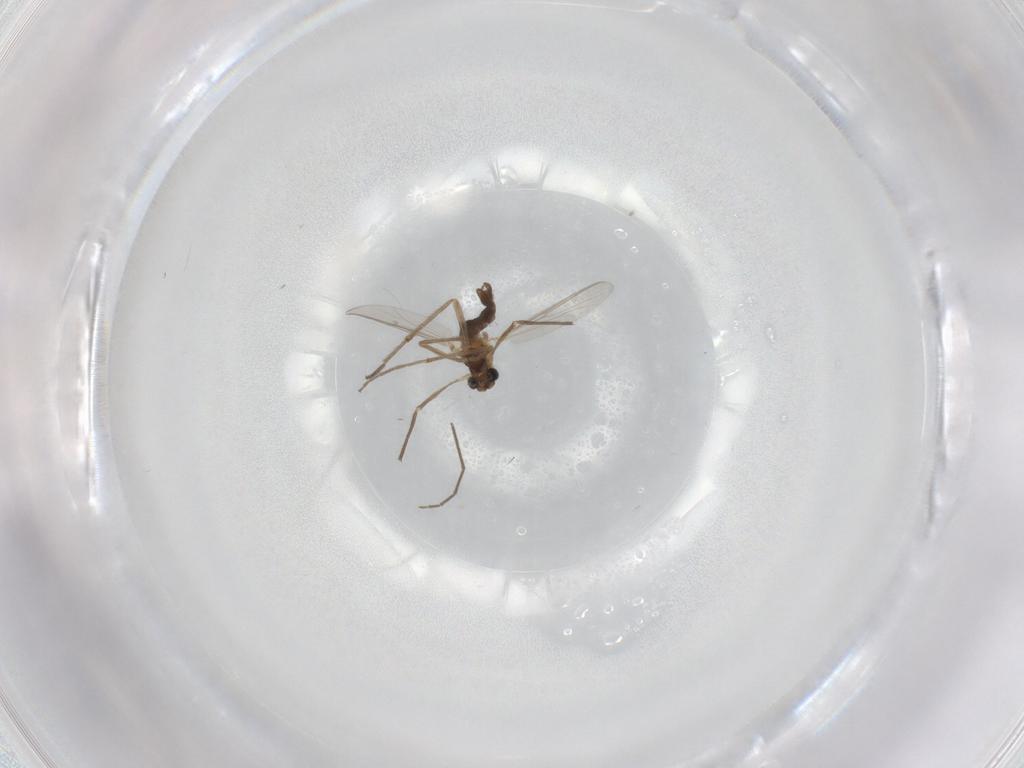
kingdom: Animalia
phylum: Arthropoda
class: Insecta
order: Diptera
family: Chironomidae
